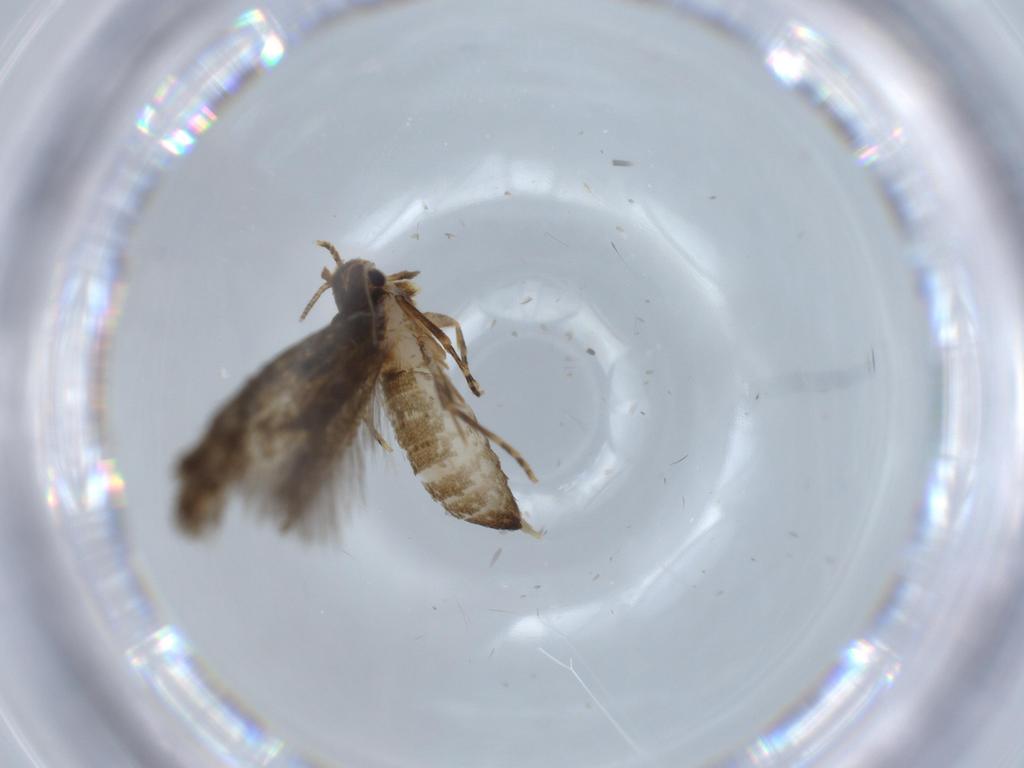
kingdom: Animalia
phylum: Arthropoda
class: Insecta
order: Lepidoptera
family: Tineidae
